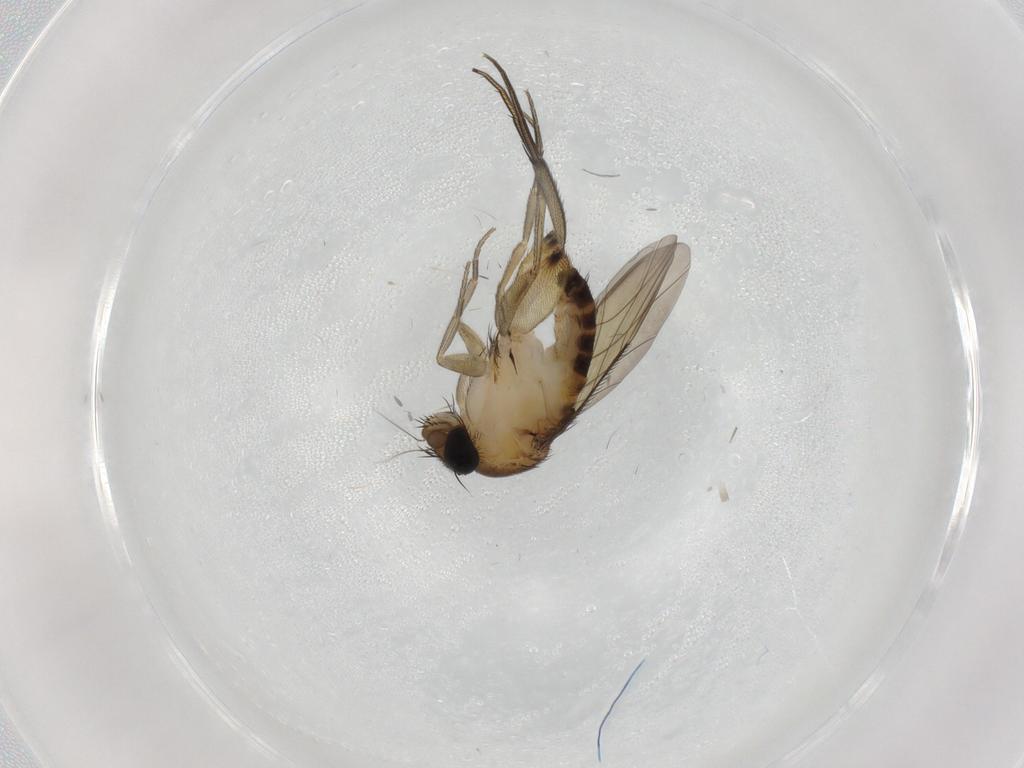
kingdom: Animalia
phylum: Arthropoda
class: Insecta
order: Diptera
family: Phoridae
